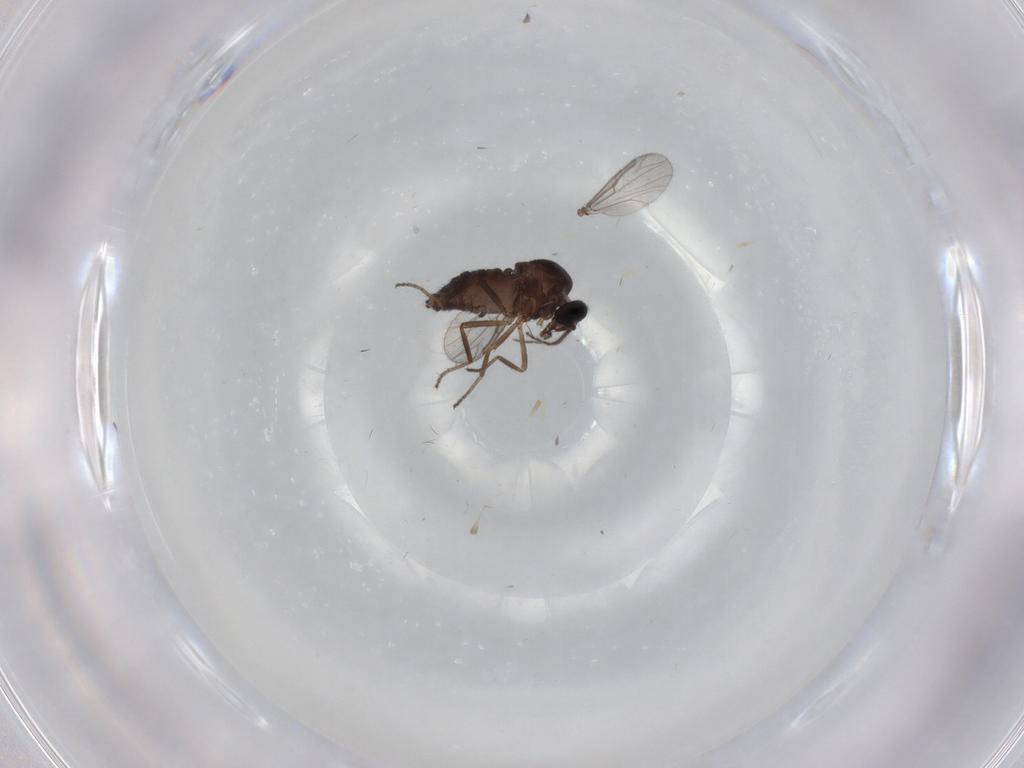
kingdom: Animalia
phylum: Arthropoda
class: Insecta
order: Diptera
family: Ceratopogonidae
